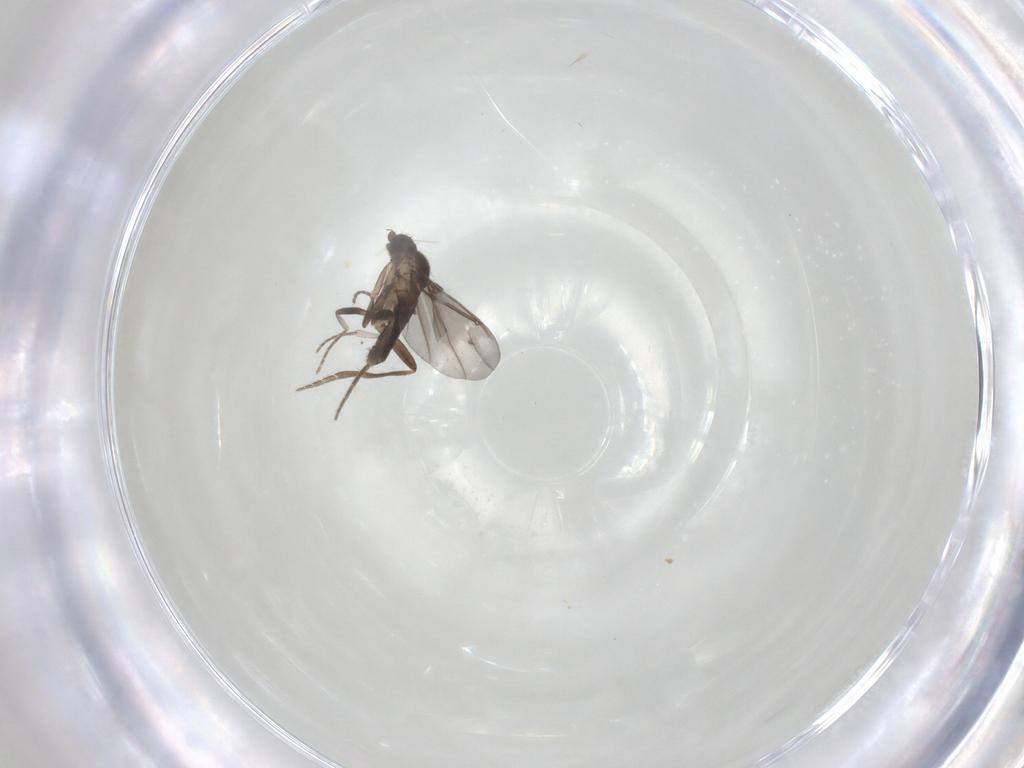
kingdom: Animalia
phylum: Arthropoda
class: Insecta
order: Diptera
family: Phoridae
